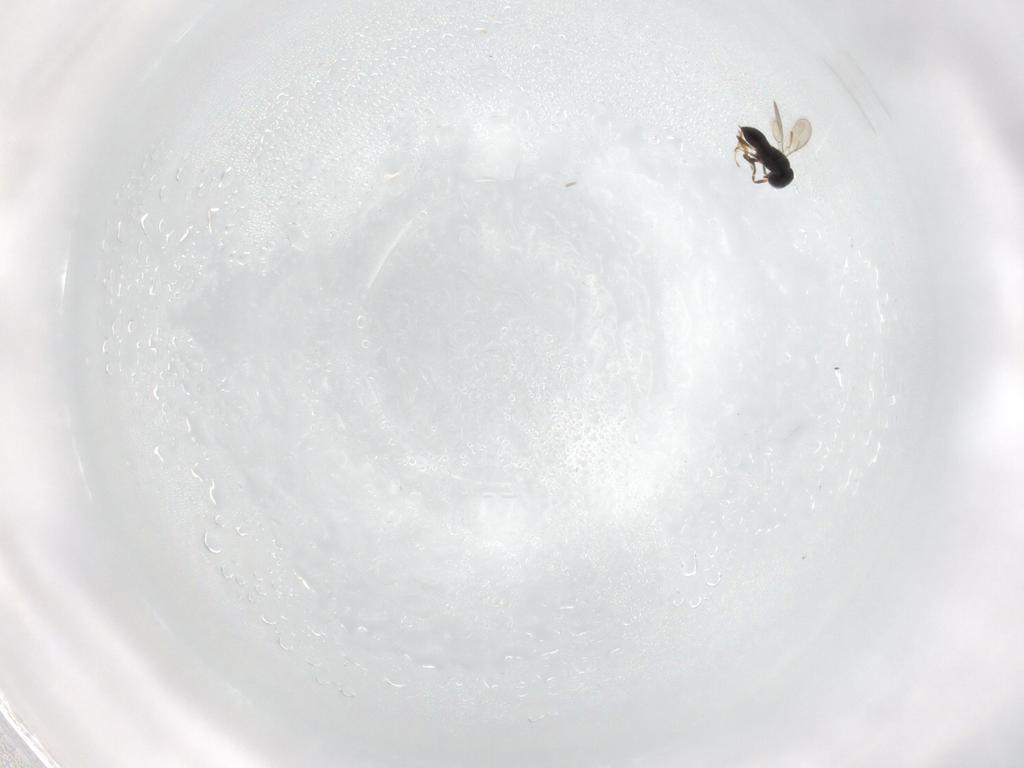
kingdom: Animalia
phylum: Arthropoda
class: Insecta
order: Hymenoptera
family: Scelionidae
